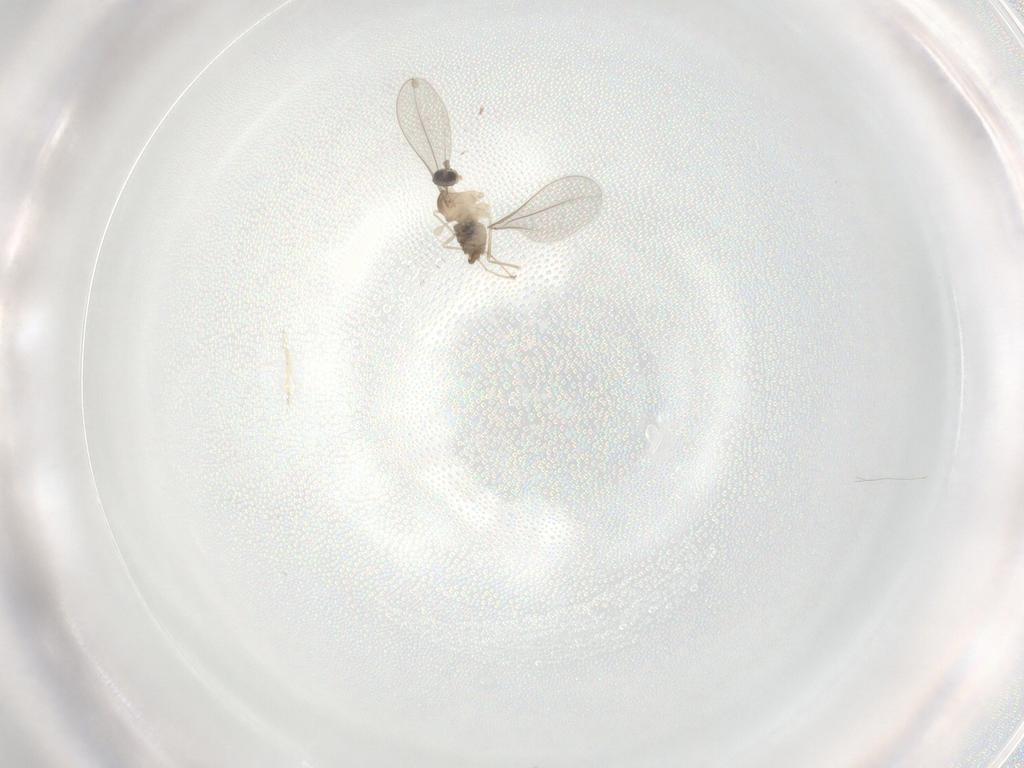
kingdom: Animalia
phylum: Arthropoda
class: Insecta
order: Diptera
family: Cecidomyiidae
